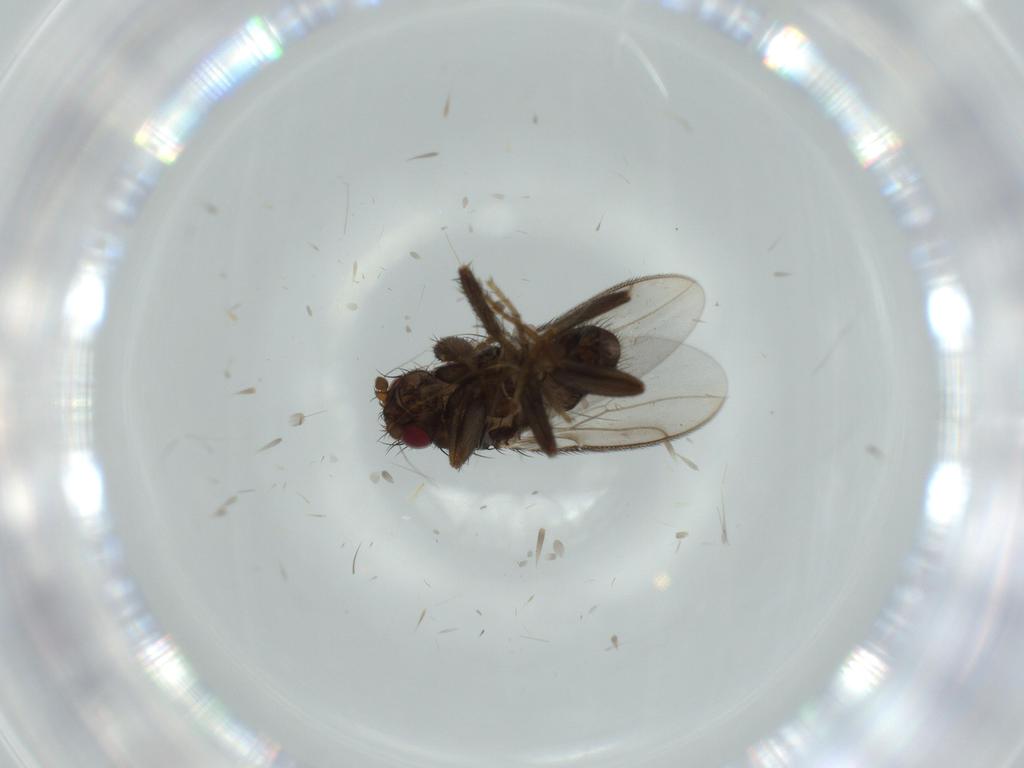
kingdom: Animalia
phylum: Arthropoda
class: Insecta
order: Diptera
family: Sphaeroceridae
